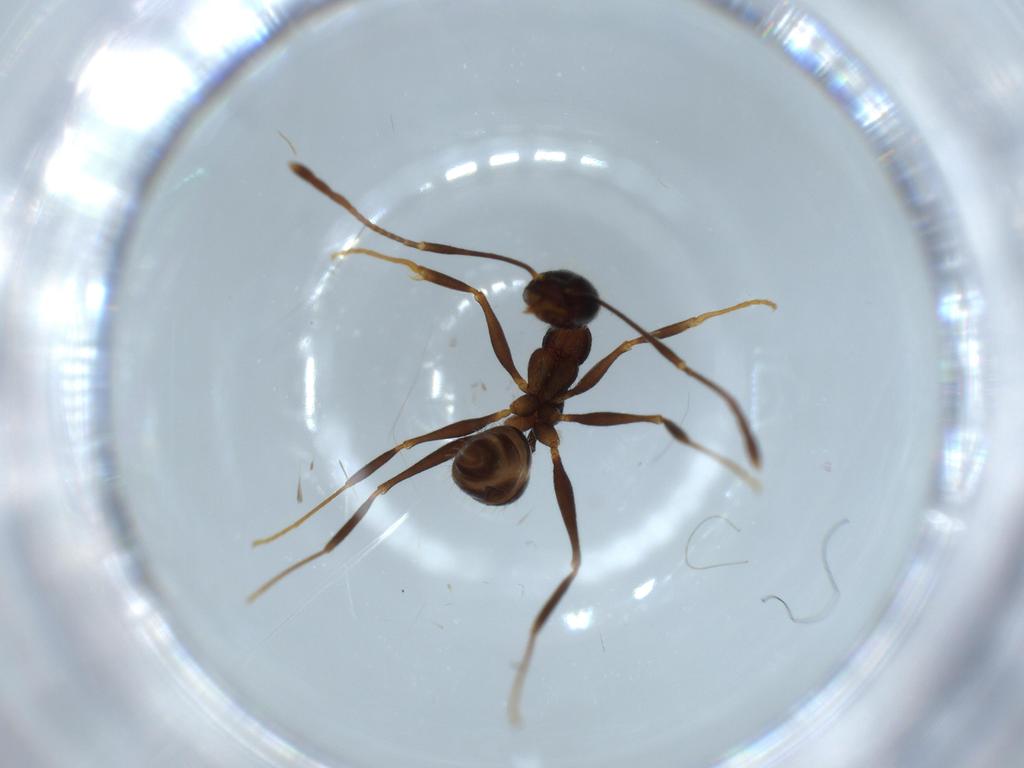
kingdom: Animalia
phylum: Arthropoda
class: Insecta
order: Hymenoptera
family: Formicidae
